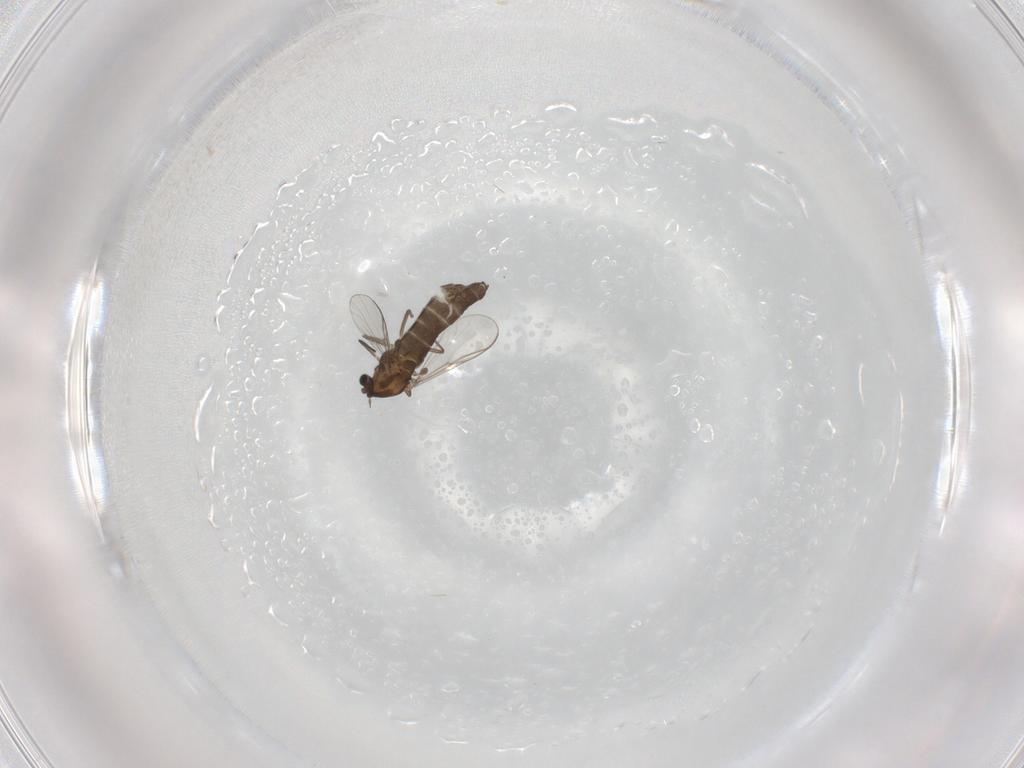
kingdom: Animalia
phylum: Arthropoda
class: Insecta
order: Diptera
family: Chironomidae
